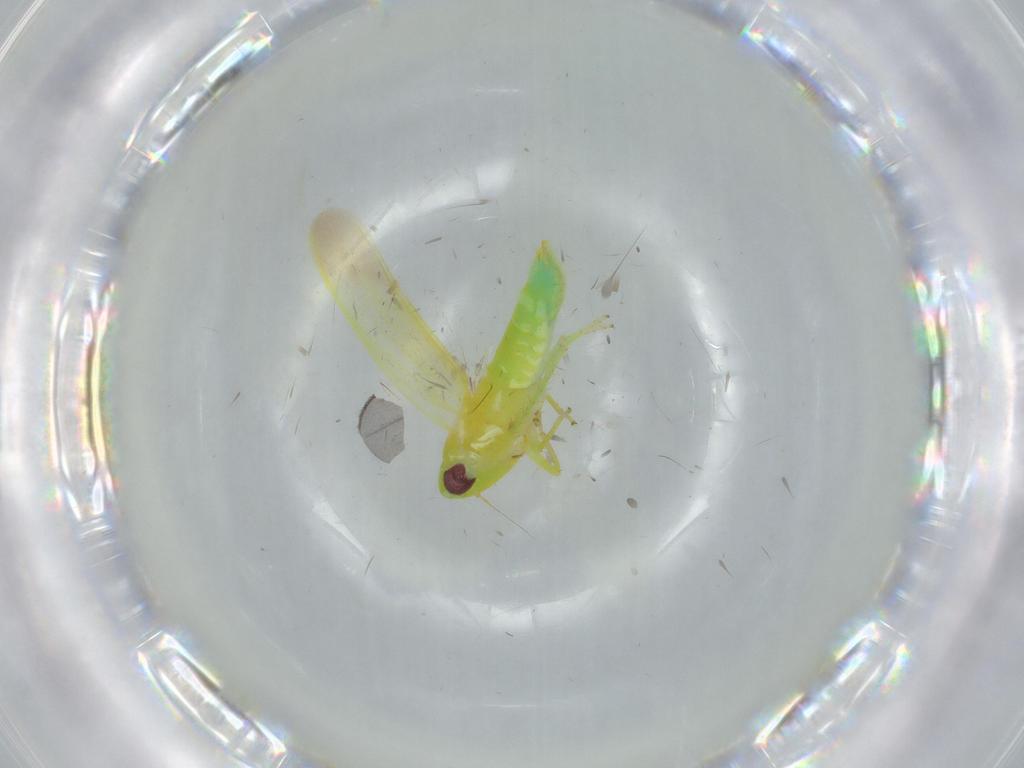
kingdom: Animalia
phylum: Arthropoda
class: Insecta
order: Hemiptera
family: Cicadellidae
